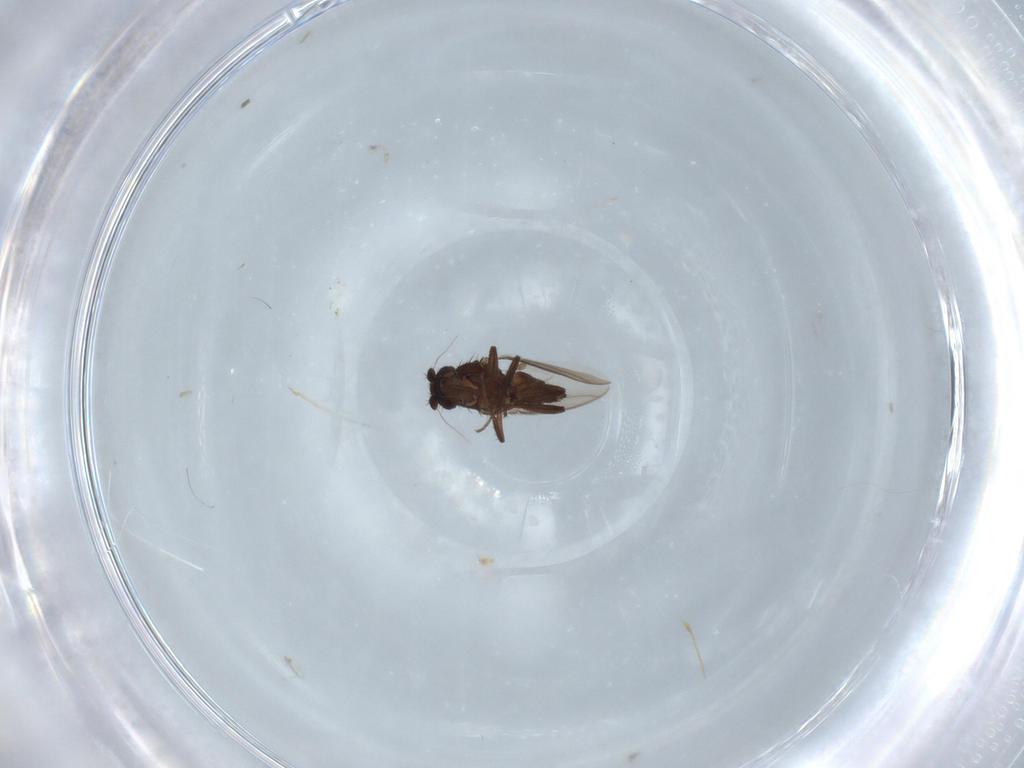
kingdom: Animalia
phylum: Arthropoda
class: Insecta
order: Diptera
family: Sphaeroceridae
